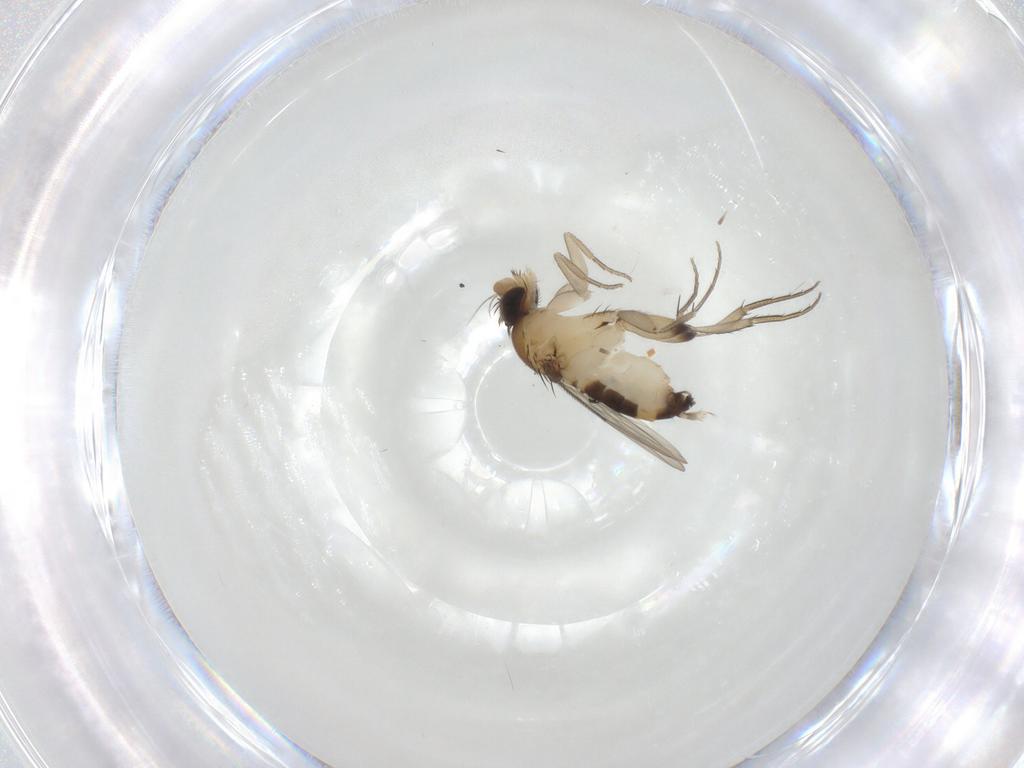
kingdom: Animalia
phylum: Arthropoda
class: Insecta
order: Diptera
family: Phoridae
